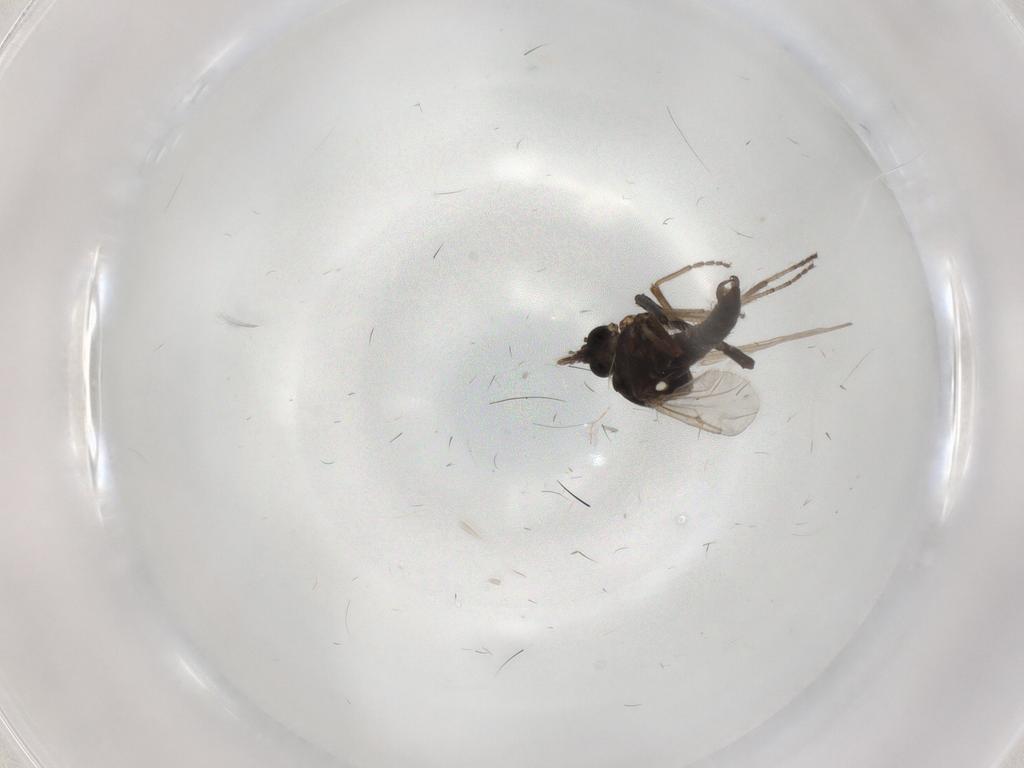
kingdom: Animalia
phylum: Arthropoda
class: Insecta
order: Diptera
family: Ceratopogonidae
